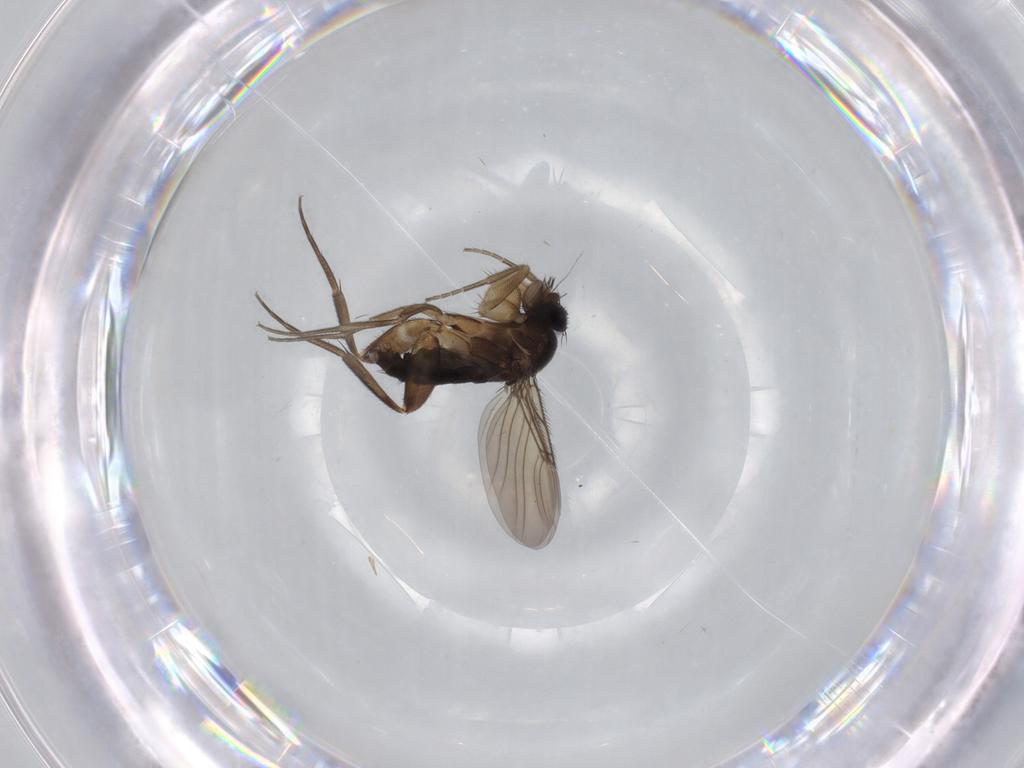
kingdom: Animalia
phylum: Arthropoda
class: Insecta
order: Diptera
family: Phoridae
